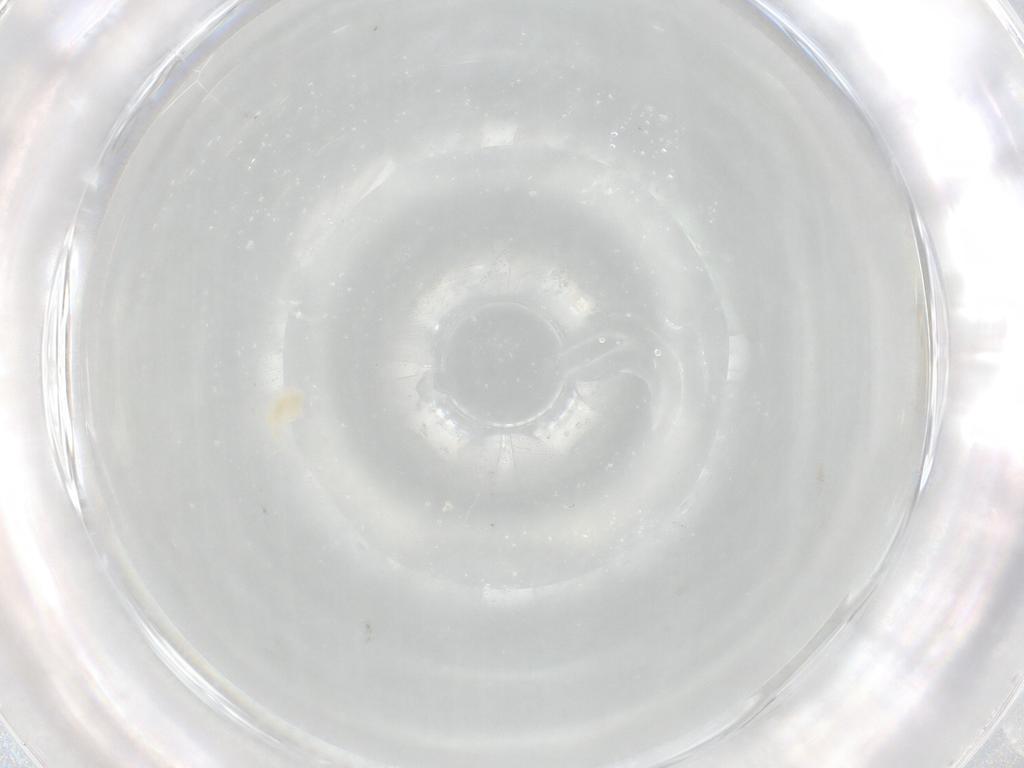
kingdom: Animalia
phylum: Arthropoda
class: Arachnida
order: Trombidiformes
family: Eupodidae
